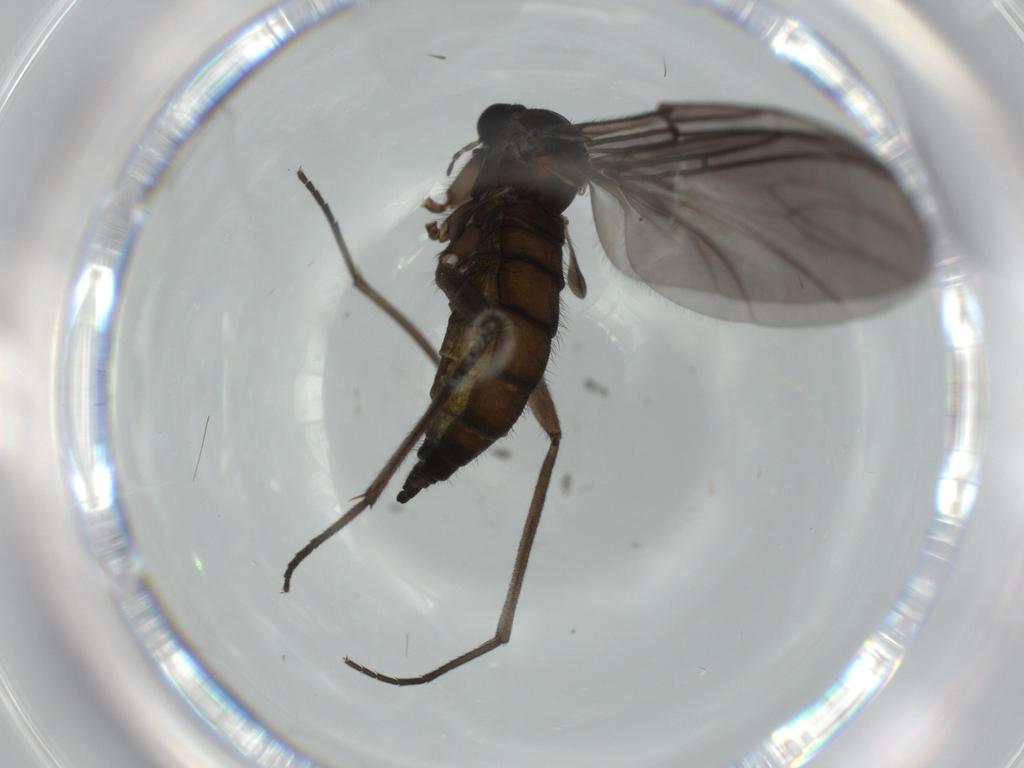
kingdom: Animalia
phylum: Arthropoda
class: Insecta
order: Diptera
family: Sciaridae
